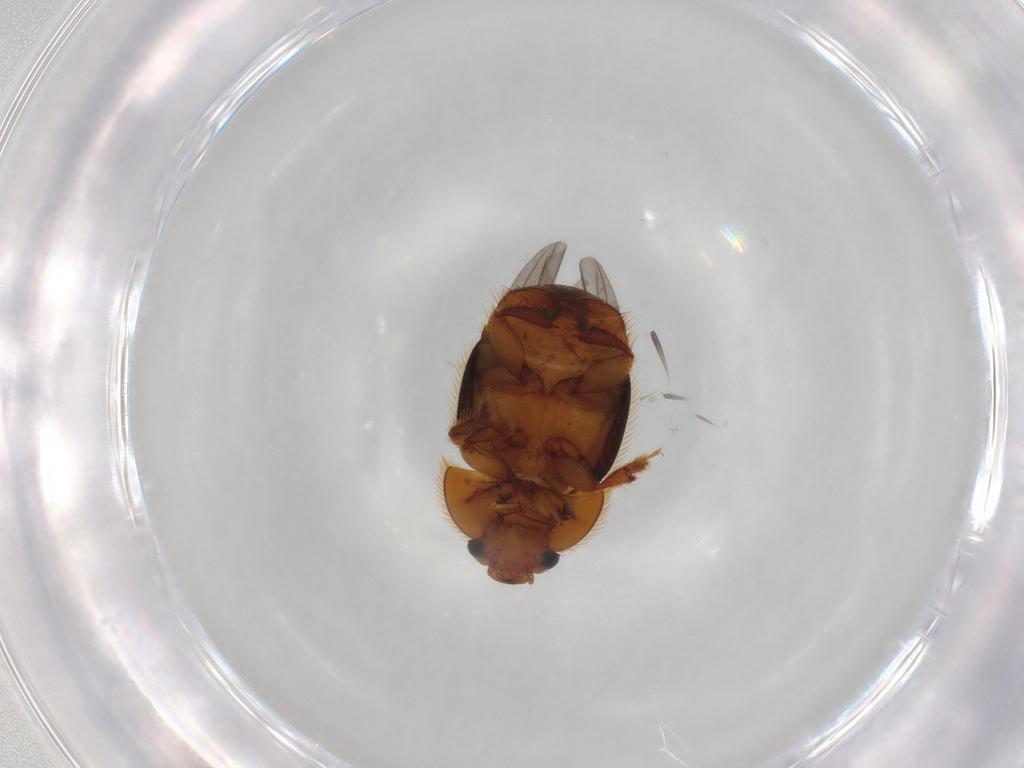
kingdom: Animalia
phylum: Arthropoda
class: Insecta
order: Coleoptera
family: Nitidulidae
